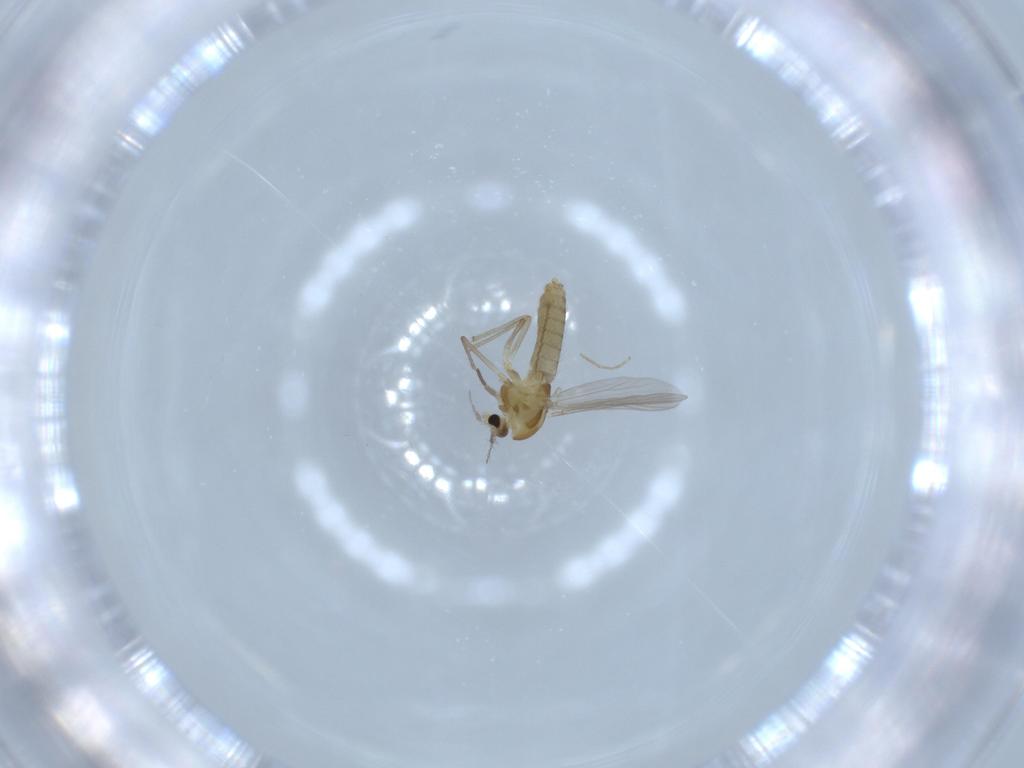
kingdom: Animalia
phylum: Arthropoda
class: Insecta
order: Diptera
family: Chironomidae
